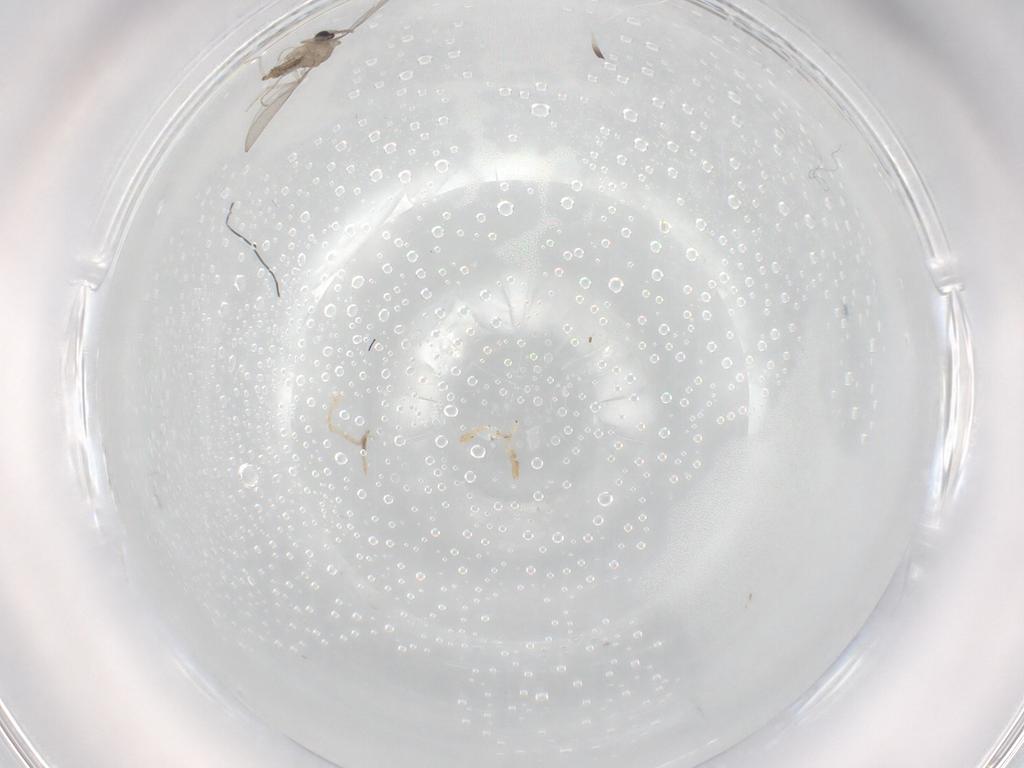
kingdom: Animalia
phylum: Arthropoda
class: Insecta
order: Diptera
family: Cecidomyiidae
